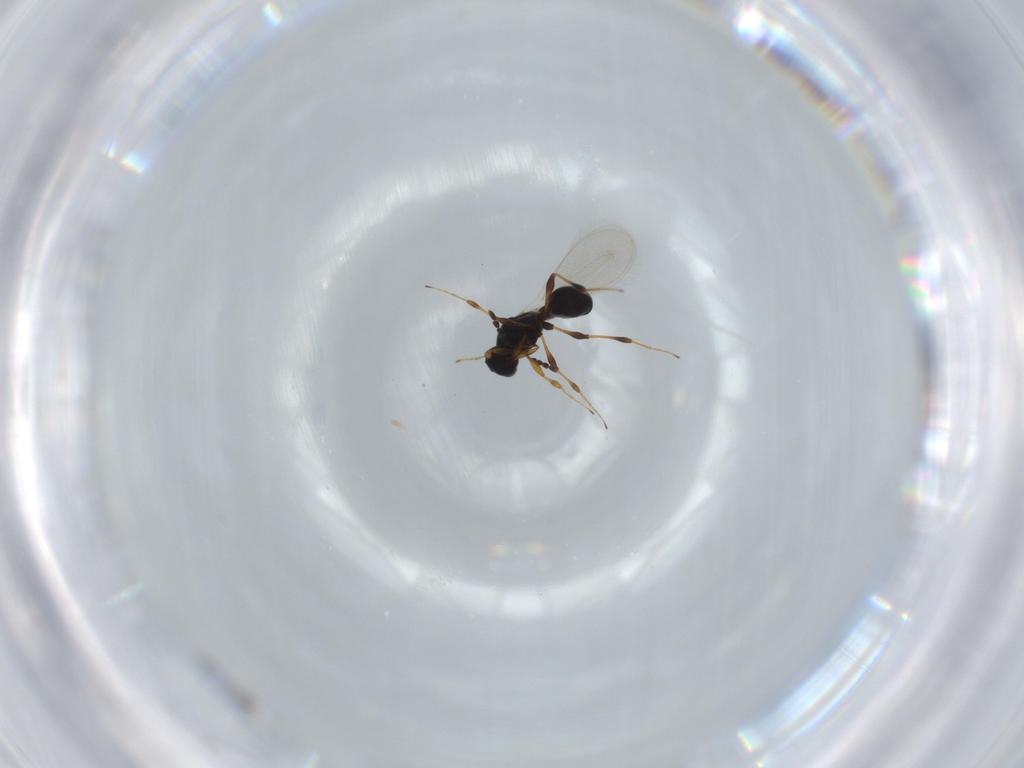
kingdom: Animalia
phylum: Arthropoda
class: Insecta
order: Hymenoptera
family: Platygastridae
